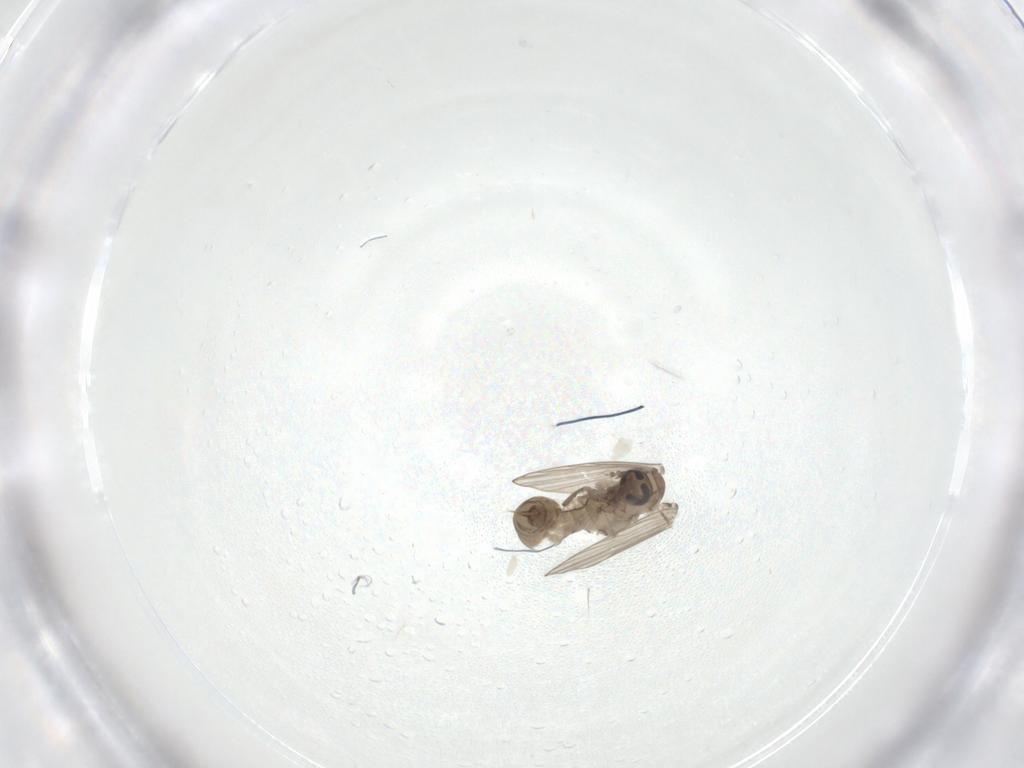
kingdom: Animalia
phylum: Arthropoda
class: Insecta
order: Diptera
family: Psychodidae
